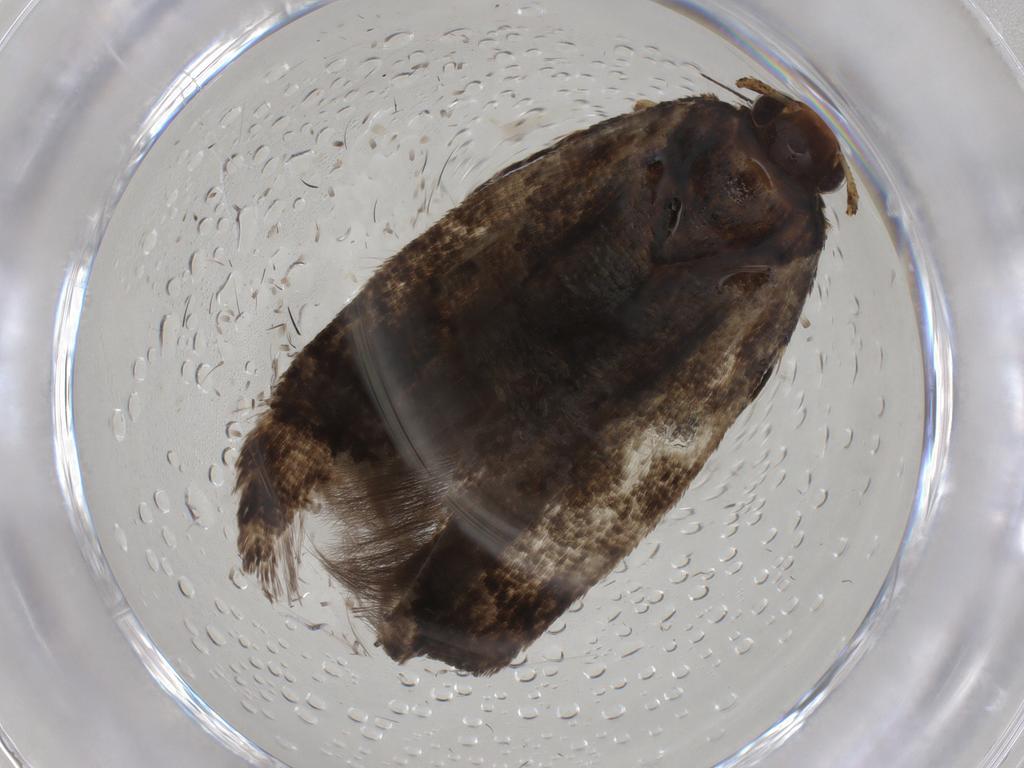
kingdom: Animalia
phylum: Arthropoda
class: Insecta
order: Lepidoptera
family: Gelechiidae
